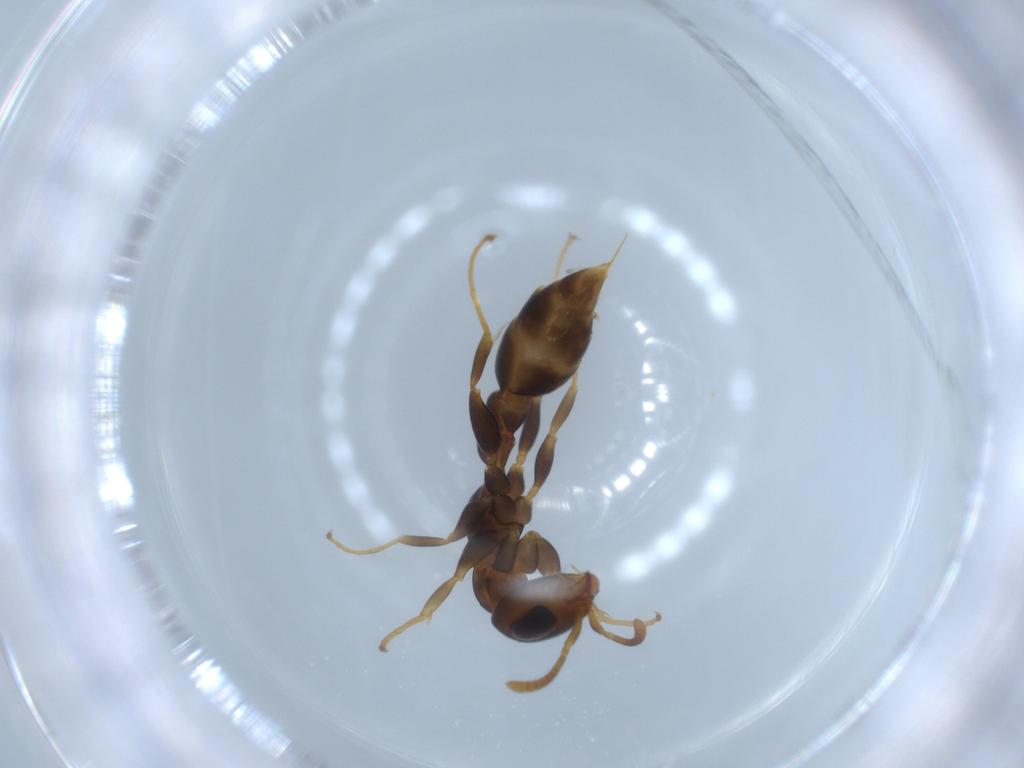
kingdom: Animalia
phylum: Arthropoda
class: Insecta
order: Hymenoptera
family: Formicidae
